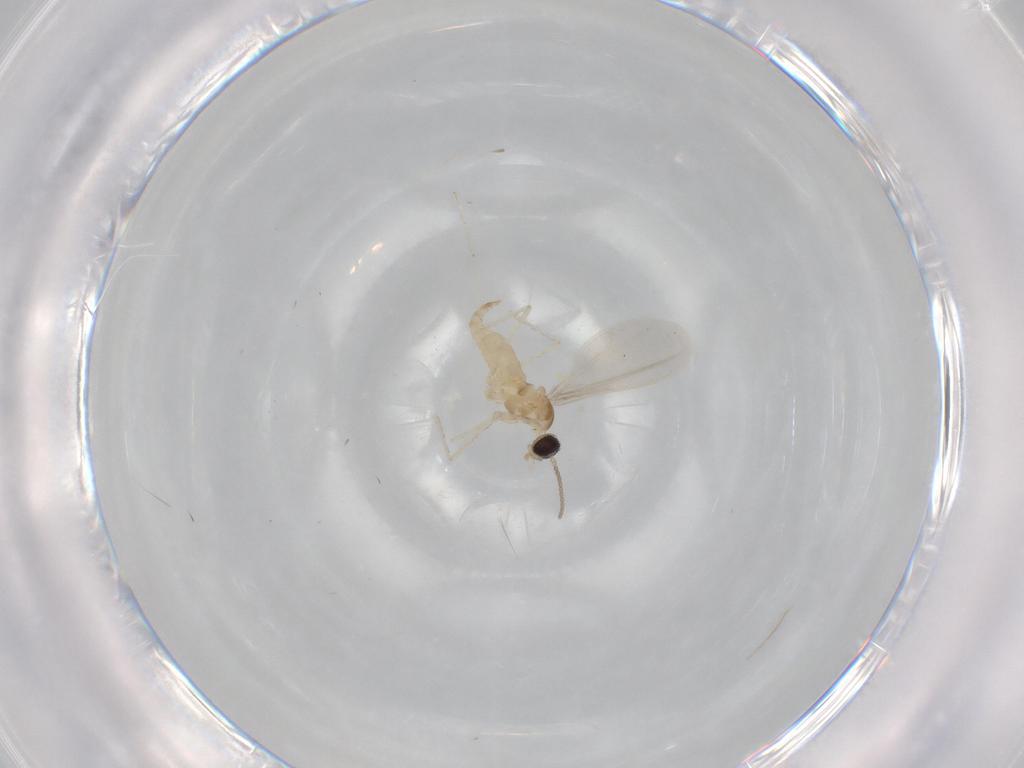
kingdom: Animalia
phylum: Arthropoda
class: Insecta
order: Diptera
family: Cecidomyiidae
